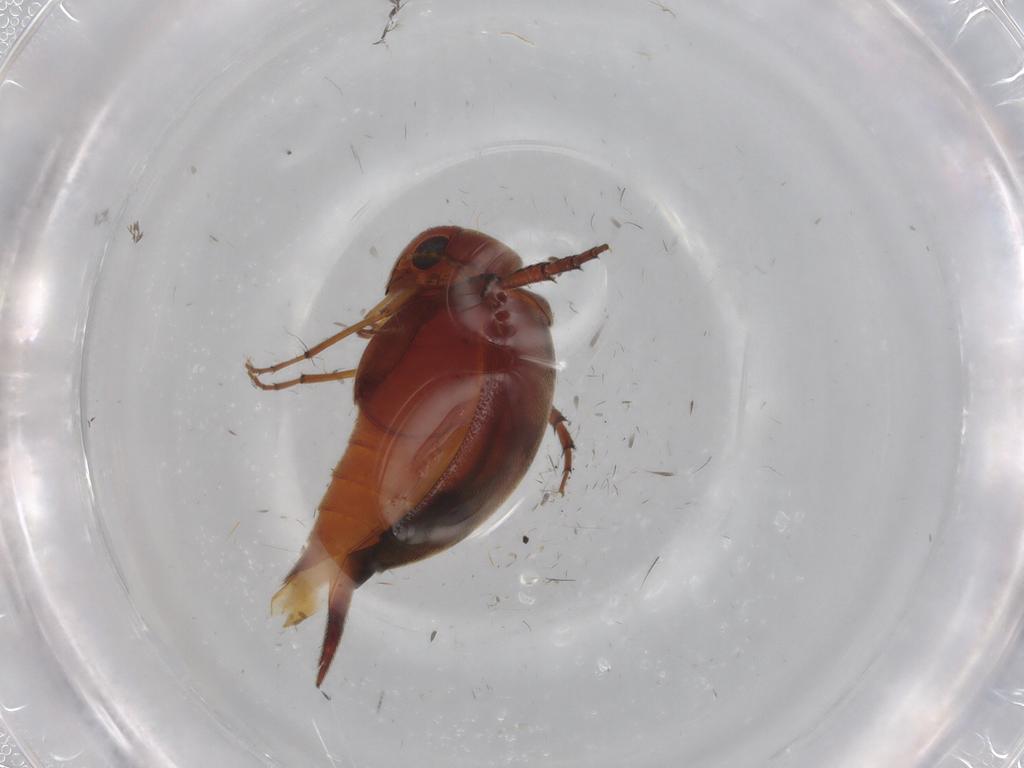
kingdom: Animalia
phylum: Arthropoda
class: Insecta
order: Coleoptera
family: Mordellidae
